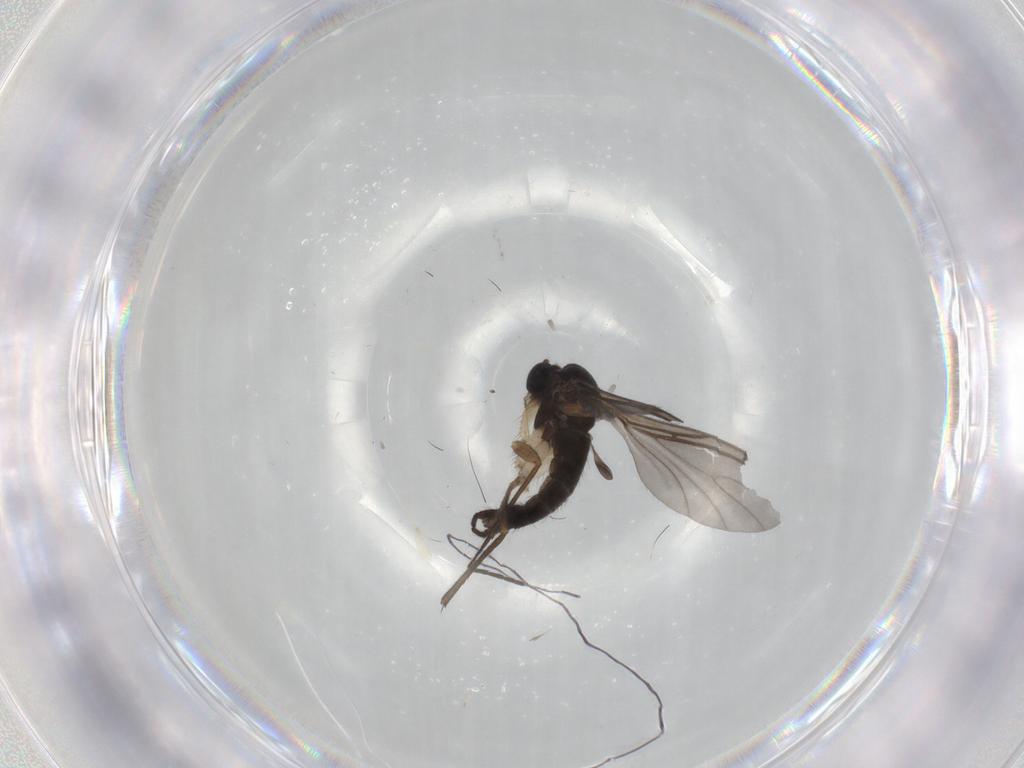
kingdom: Animalia
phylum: Arthropoda
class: Insecta
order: Diptera
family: Sciaridae
